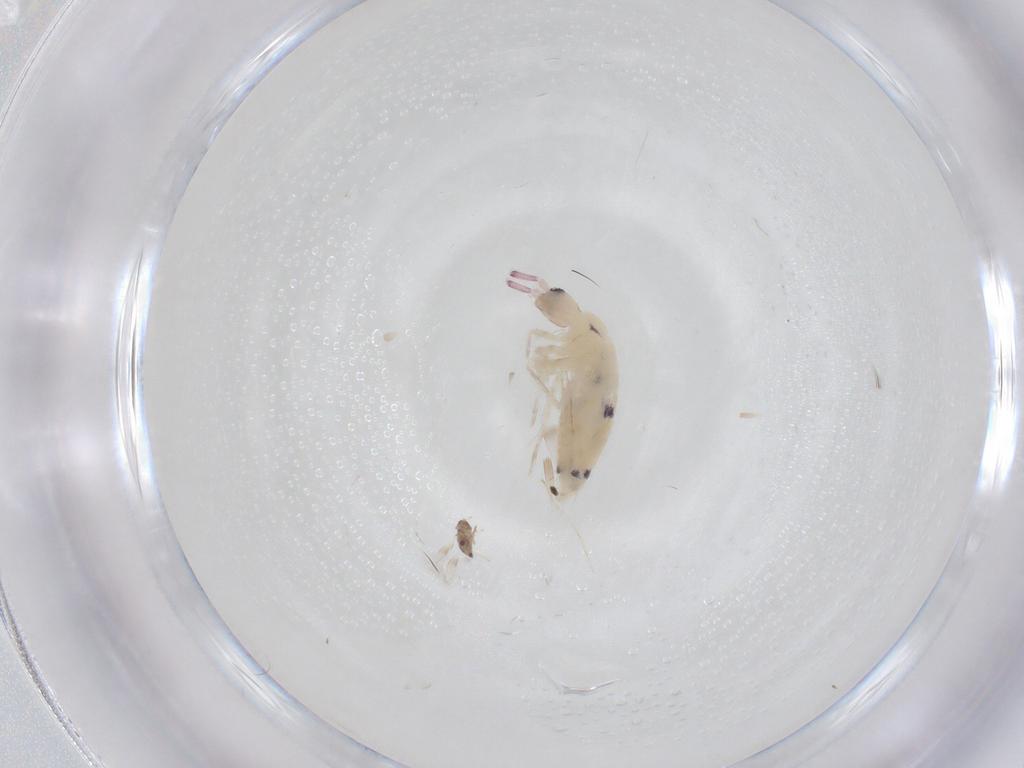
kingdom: Animalia
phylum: Arthropoda
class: Collembola
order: Entomobryomorpha
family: Entomobryidae
